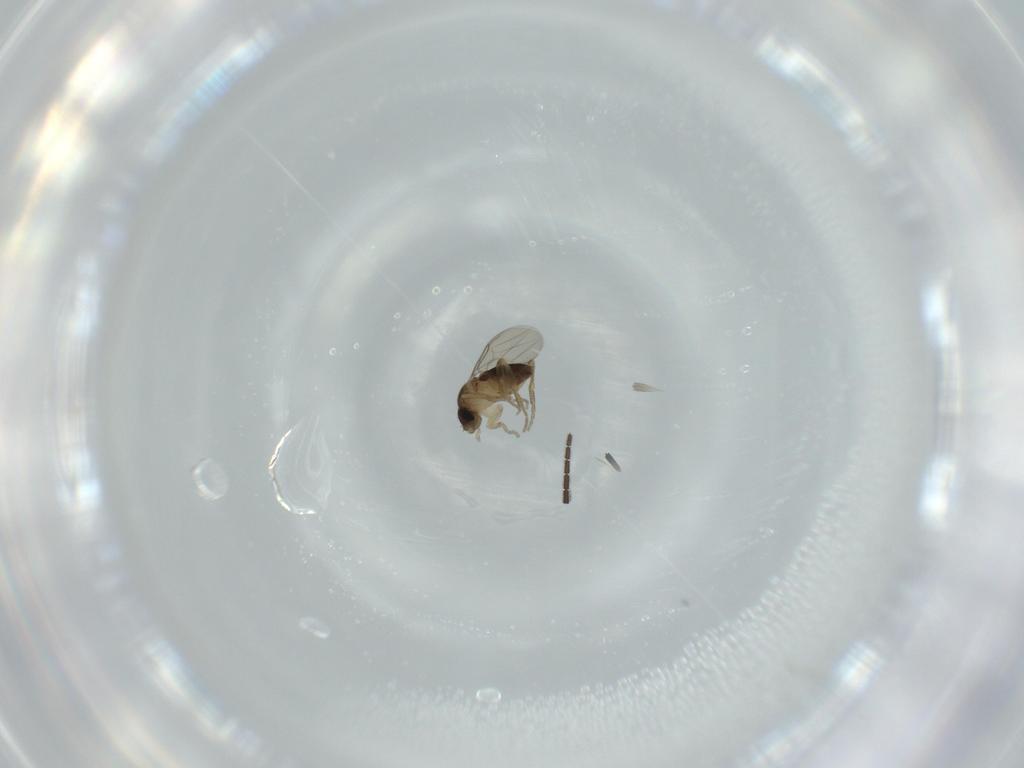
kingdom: Animalia
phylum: Arthropoda
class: Insecta
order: Diptera
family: Sciaridae
